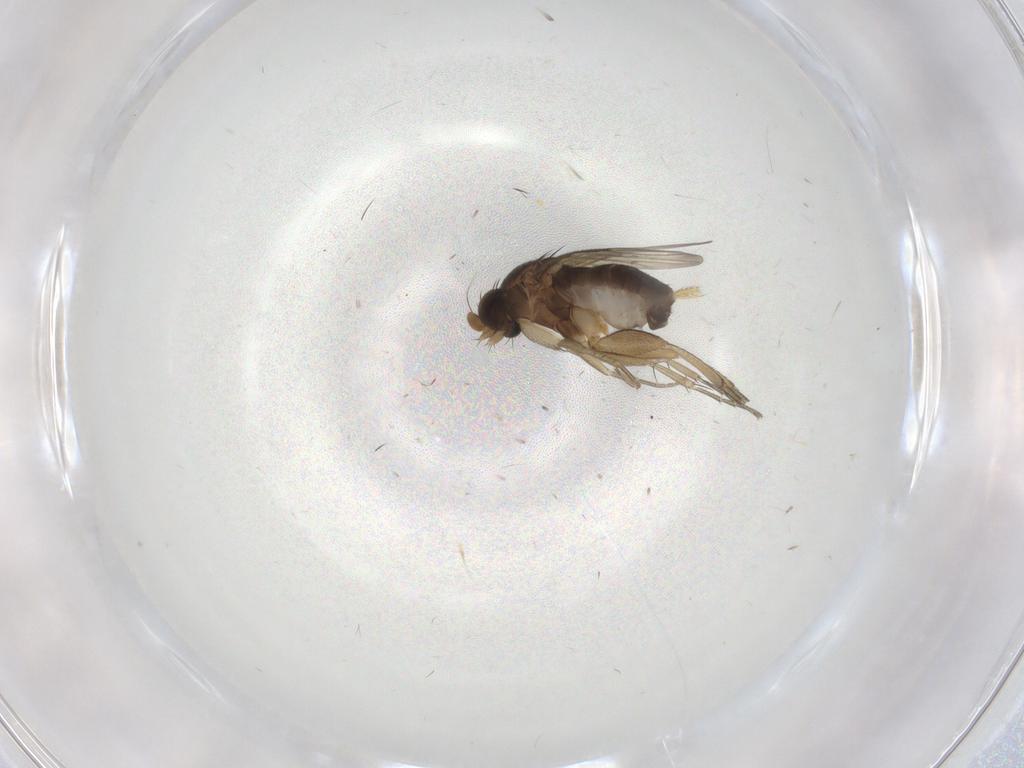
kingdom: Animalia
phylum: Arthropoda
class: Insecta
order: Diptera
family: Phoridae
